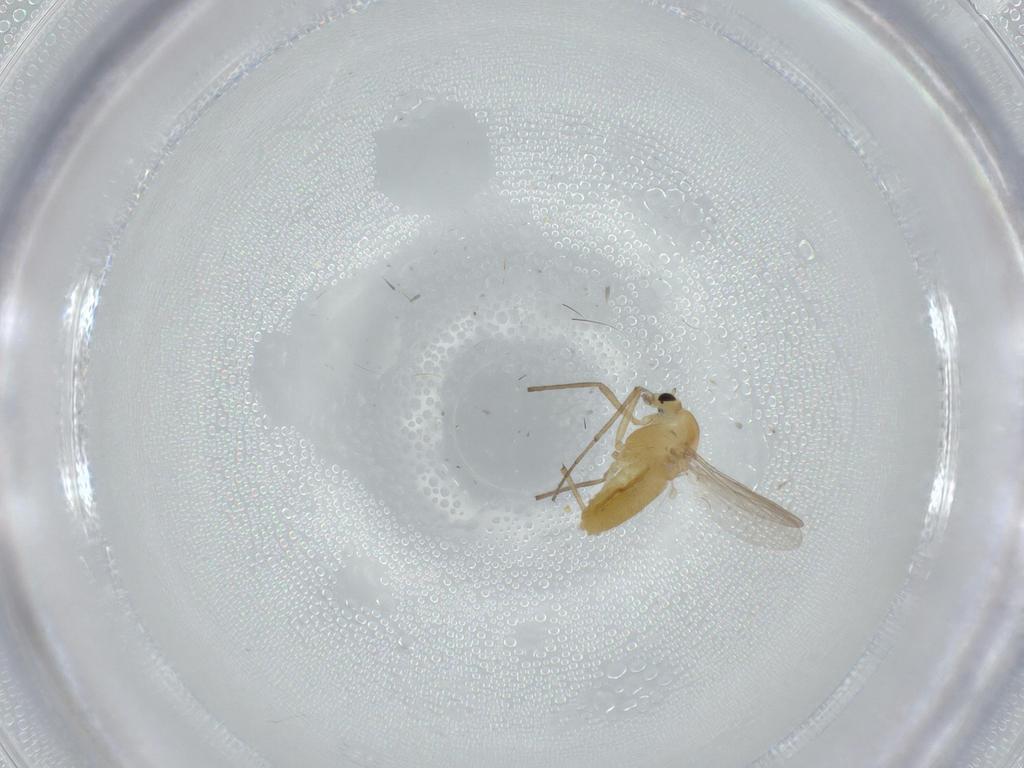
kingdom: Animalia
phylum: Arthropoda
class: Insecta
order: Diptera
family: Chironomidae
